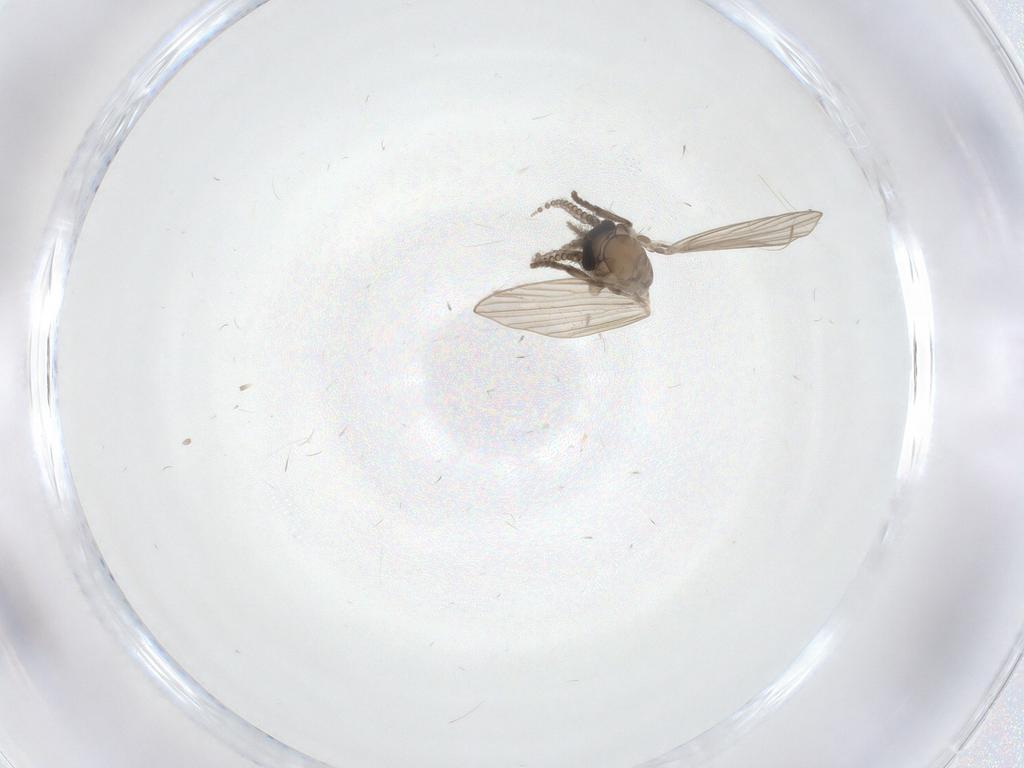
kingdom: Animalia
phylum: Arthropoda
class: Insecta
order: Diptera
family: Psychodidae
